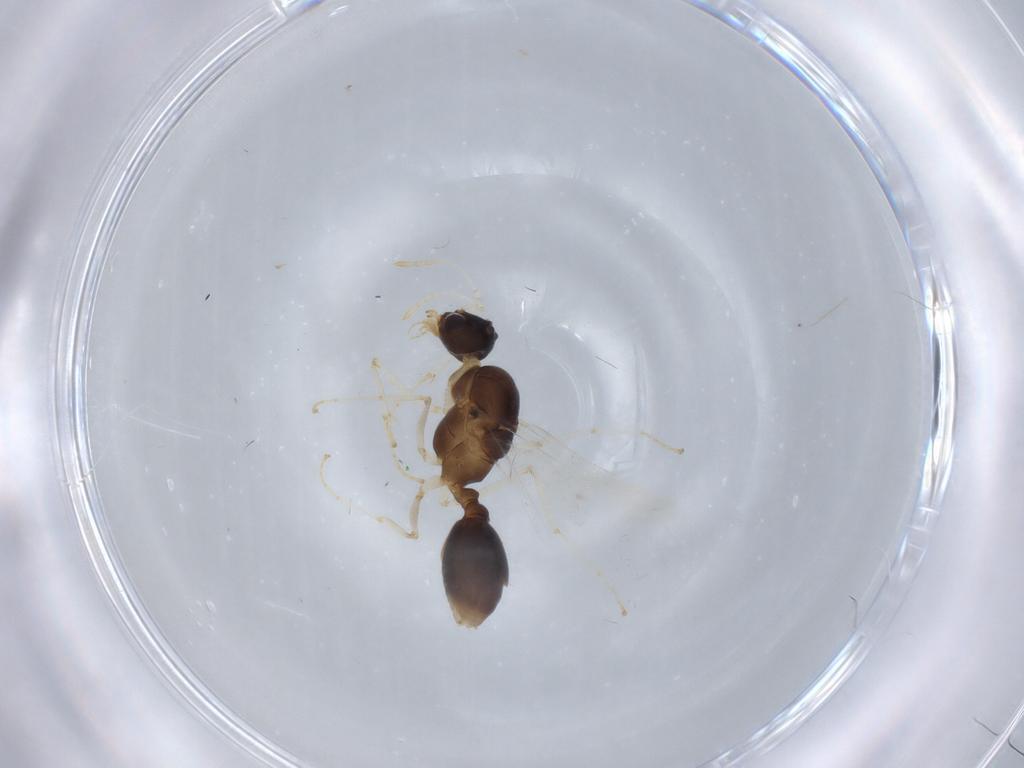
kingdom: Animalia
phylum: Arthropoda
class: Insecta
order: Hymenoptera
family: Formicidae
